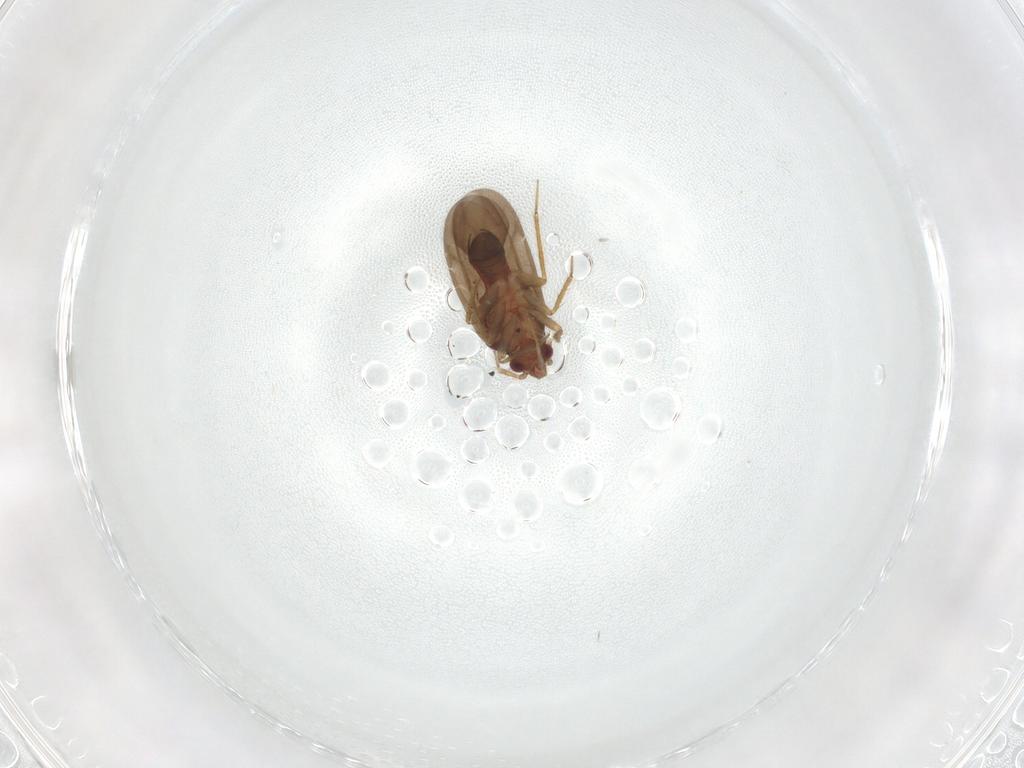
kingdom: Animalia
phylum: Arthropoda
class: Insecta
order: Hemiptera
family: Ceratocombidae
